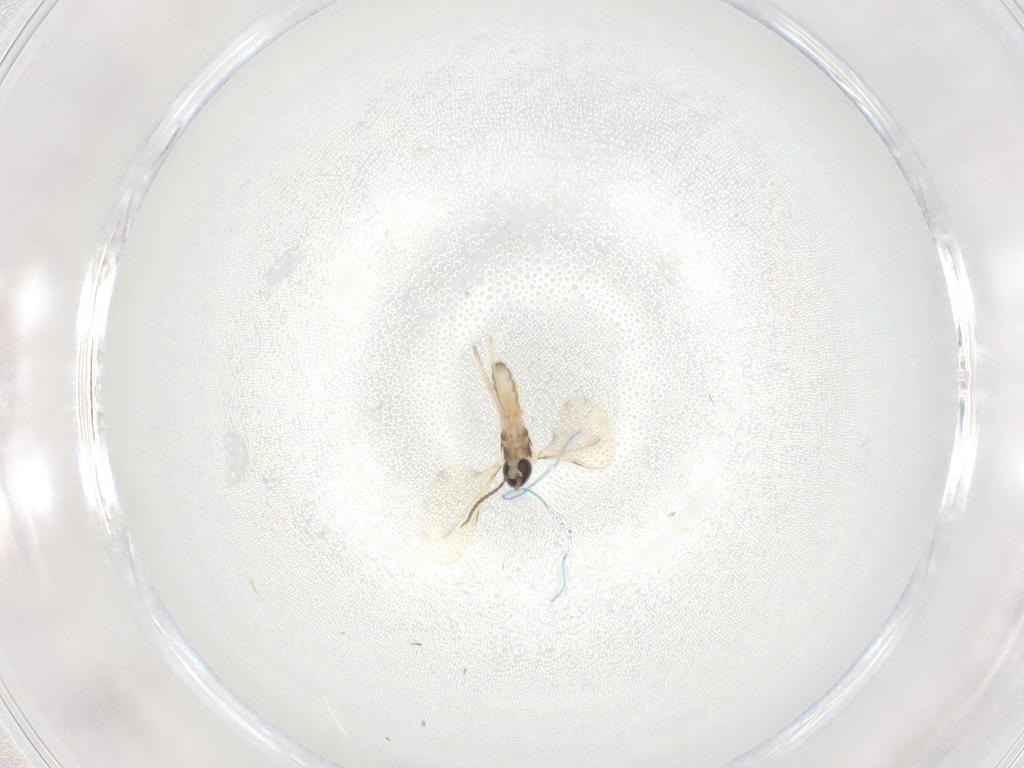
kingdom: Animalia
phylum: Arthropoda
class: Insecta
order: Diptera
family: Cecidomyiidae
